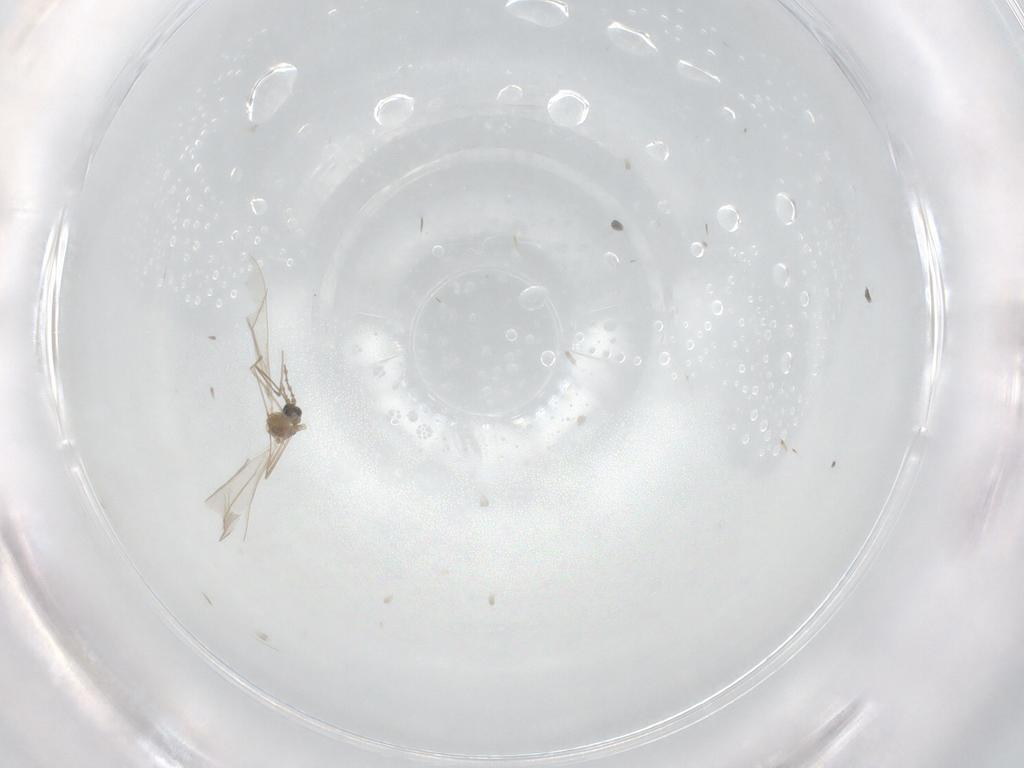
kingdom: Animalia
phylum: Arthropoda
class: Insecta
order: Diptera
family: Cecidomyiidae
